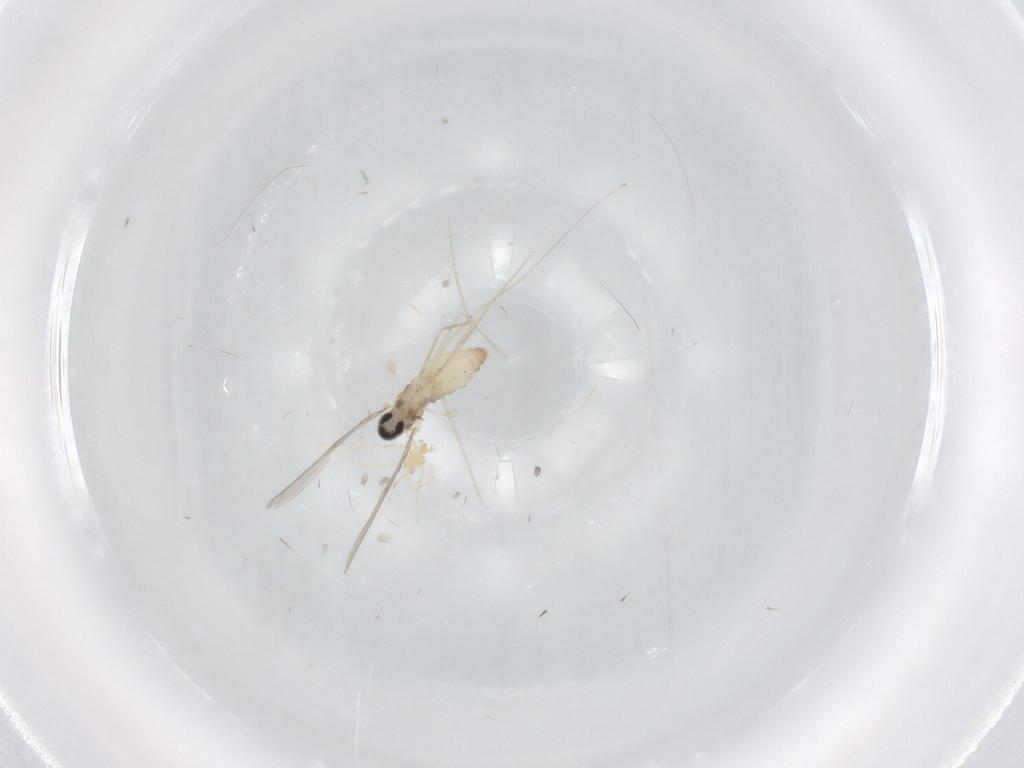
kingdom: Animalia
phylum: Arthropoda
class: Insecta
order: Diptera
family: Cecidomyiidae
